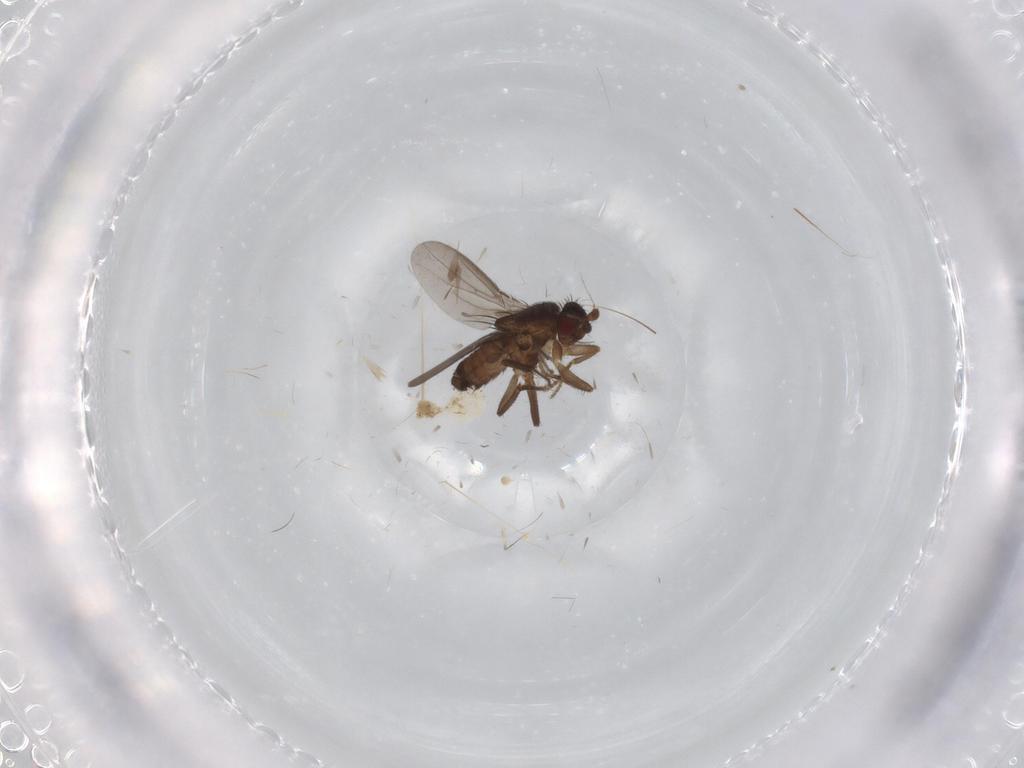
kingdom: Animalia
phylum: Arthropoda
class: Insecta
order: Diptera
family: Sphaeroceridae
